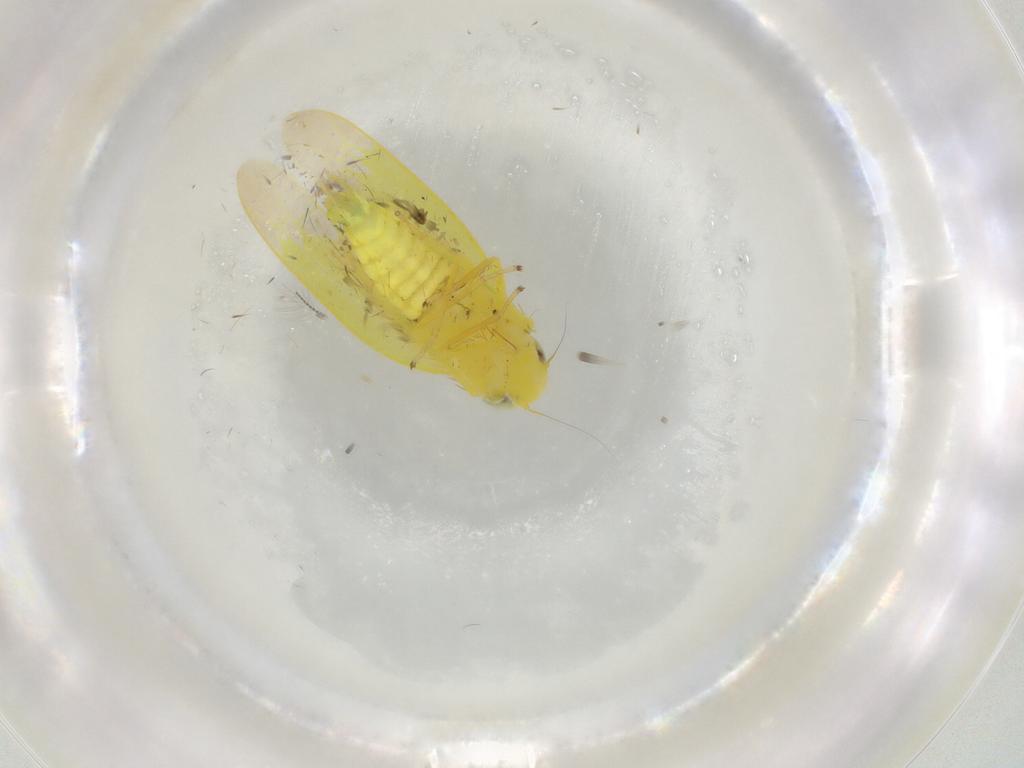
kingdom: Animalia
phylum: Arthropoda
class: Insecta
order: Hemiptera
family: Cicadellidae
